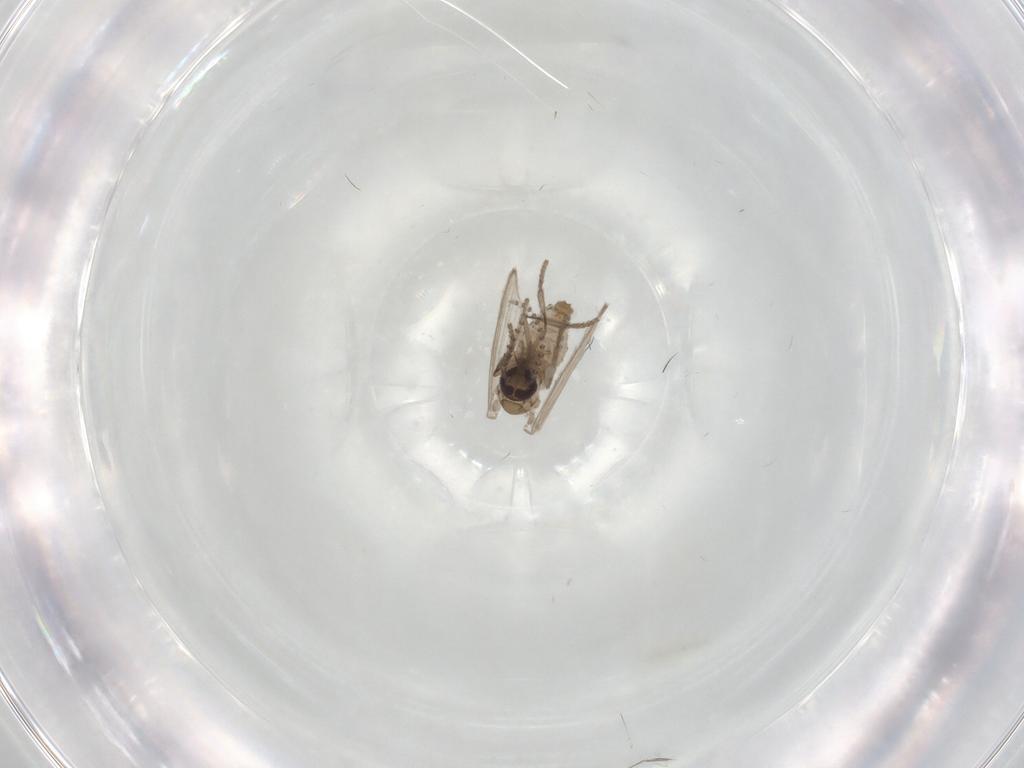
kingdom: Animalia
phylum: Arthropoda
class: Insecta
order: Diptera
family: Psychodidae
